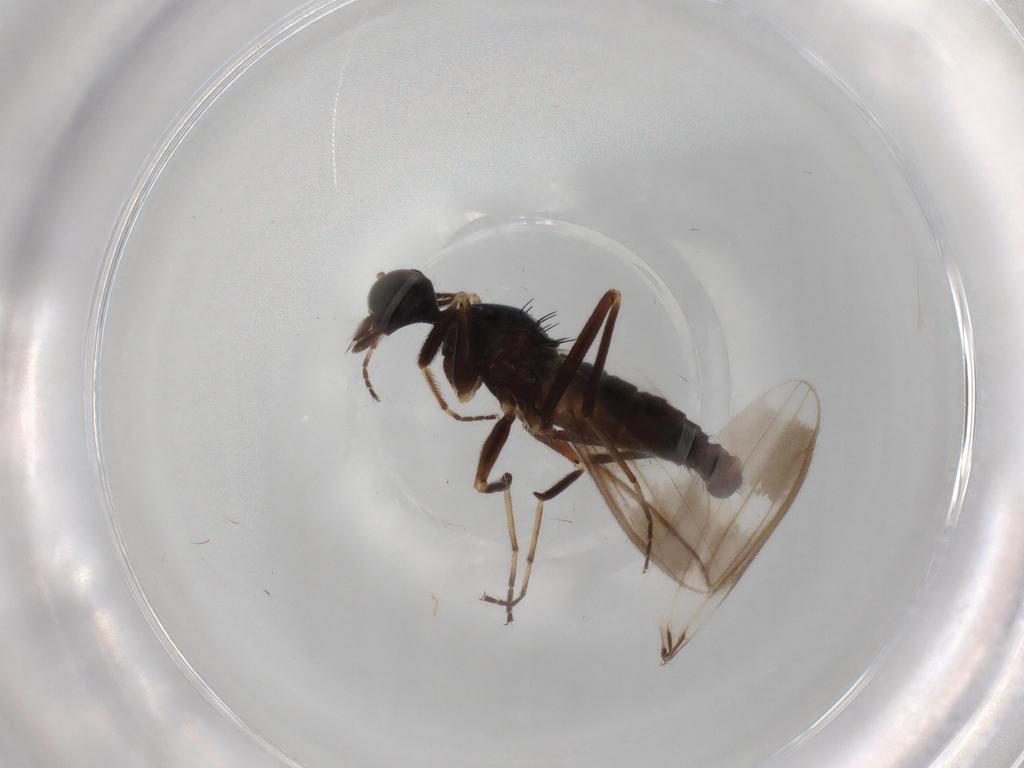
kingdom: Animalia
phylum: Arthropoda
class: Insecta
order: Diptera
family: Hybotidae
